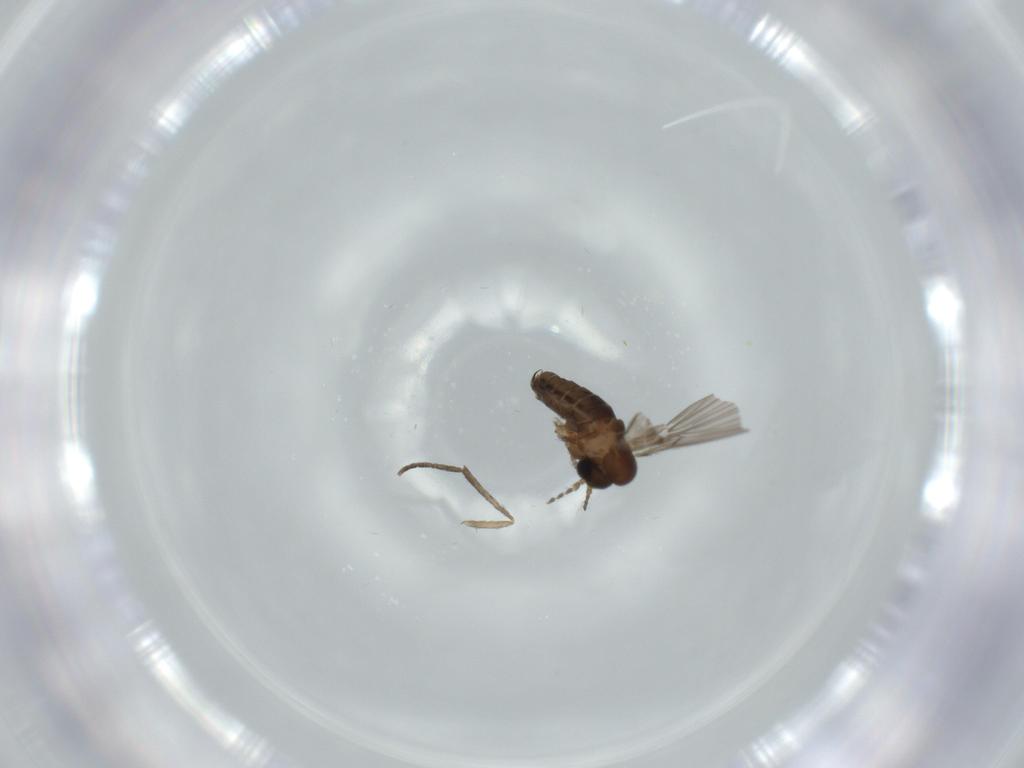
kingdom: Animalia
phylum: Arthropoda
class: Insecta
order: Diptera
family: Psychodidae
